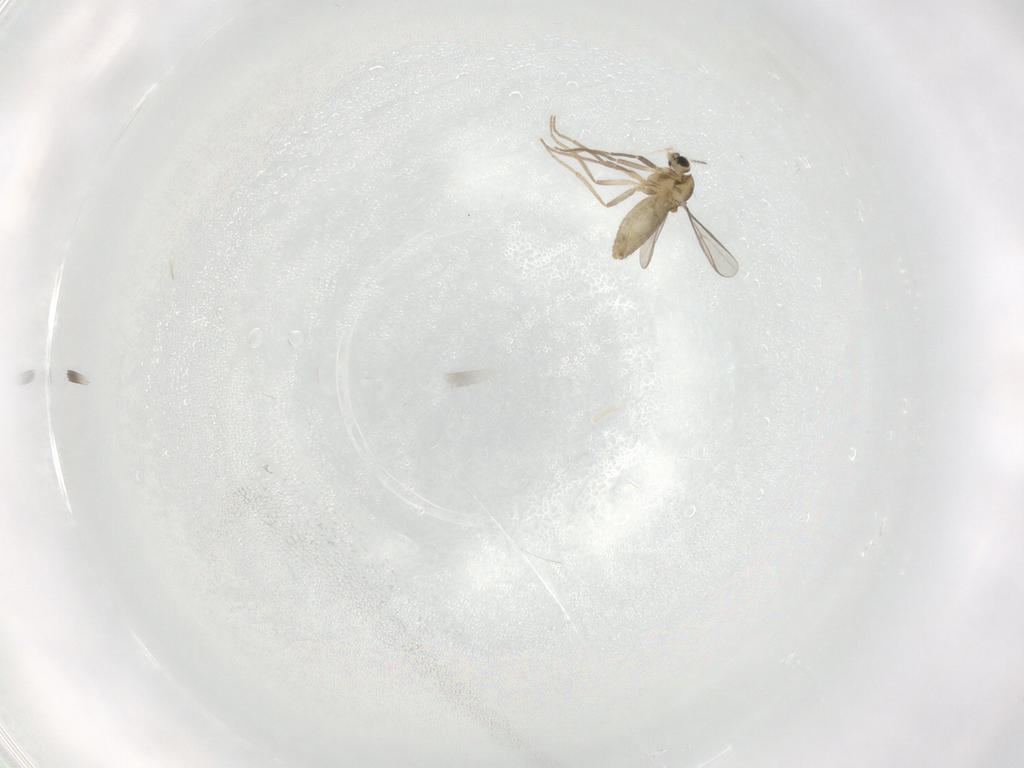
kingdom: Animalia
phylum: Arthropoda
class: Insecta
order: Diptera
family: Chironomidae
